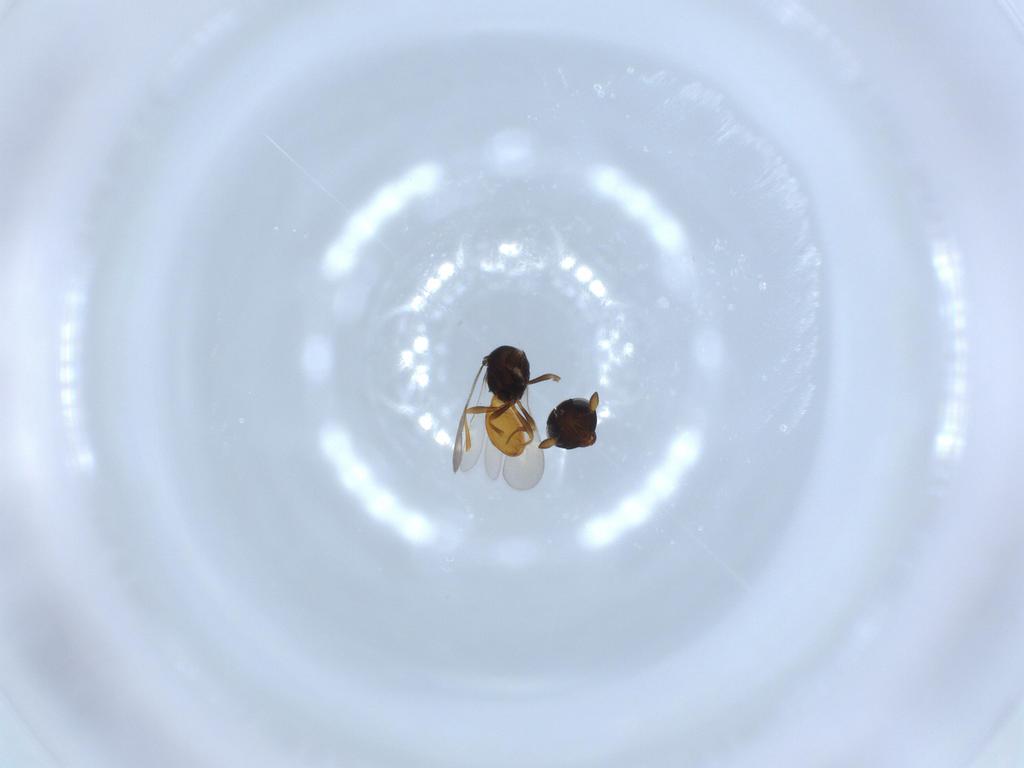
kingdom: Animalia
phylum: Arthropoda
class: Insecta
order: Hymenoptera
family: Scelionidae
